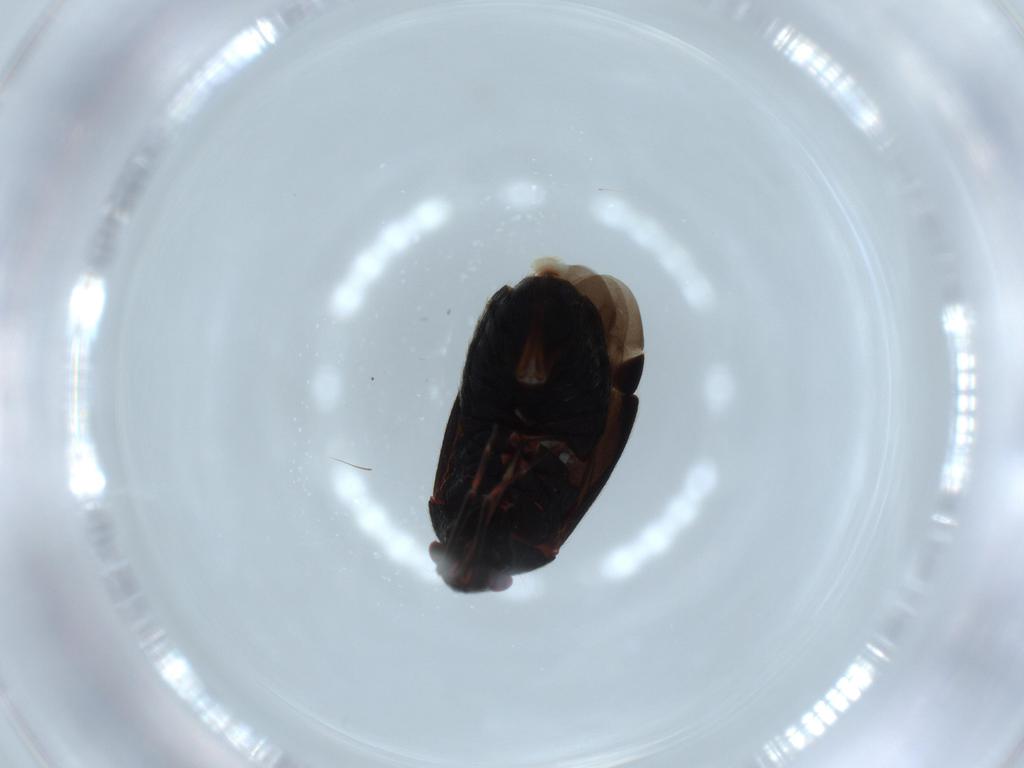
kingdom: Animalia
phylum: Arthropoda
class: Insecta
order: Hemiptera
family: Miridae
